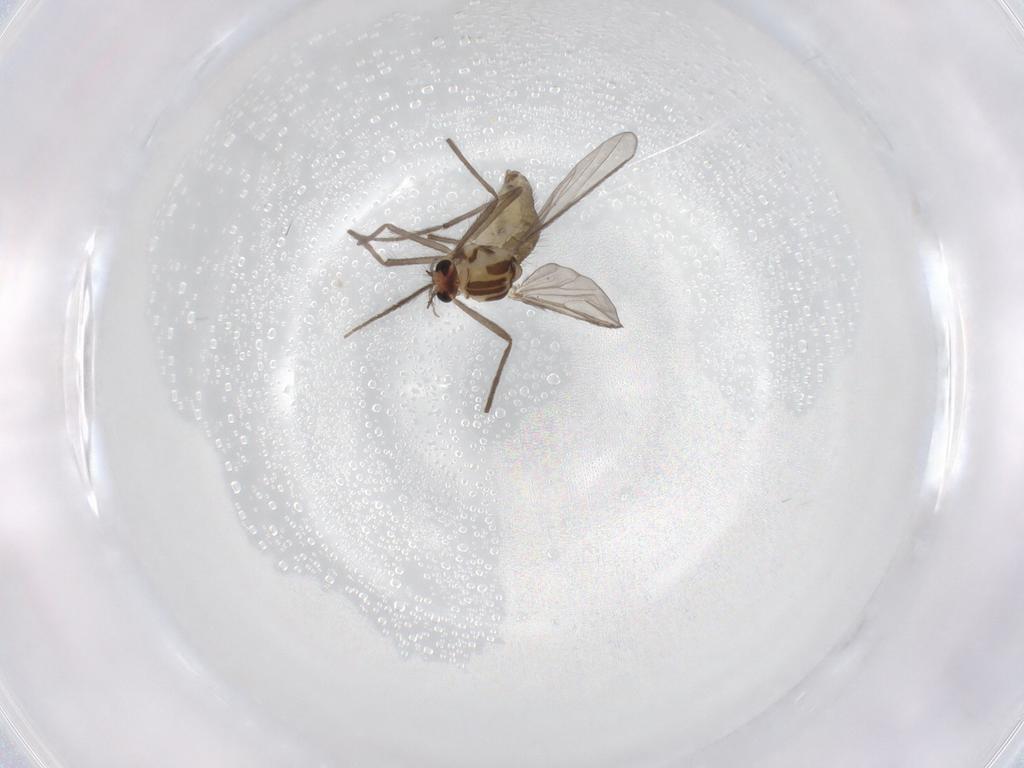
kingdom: Animalia
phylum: Arthropoda
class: Insecta
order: Diptera
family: Chironomidae
